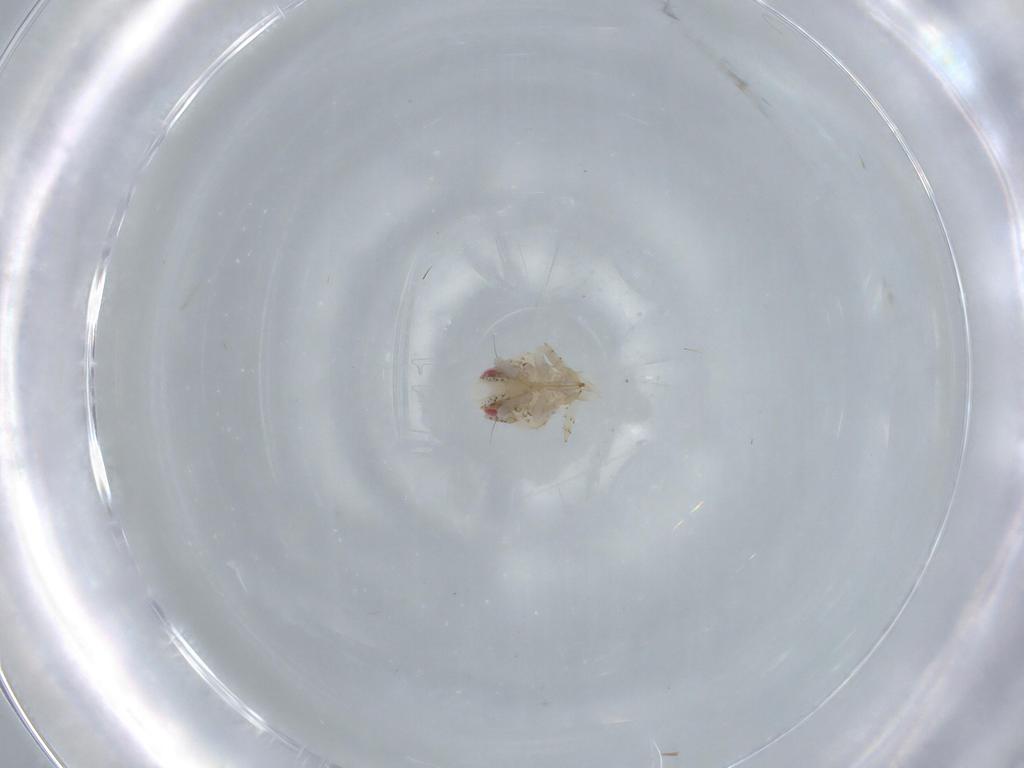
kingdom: Animalia
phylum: Arthropoda
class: Insecta
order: Hemiptera
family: Acanaloniidae
